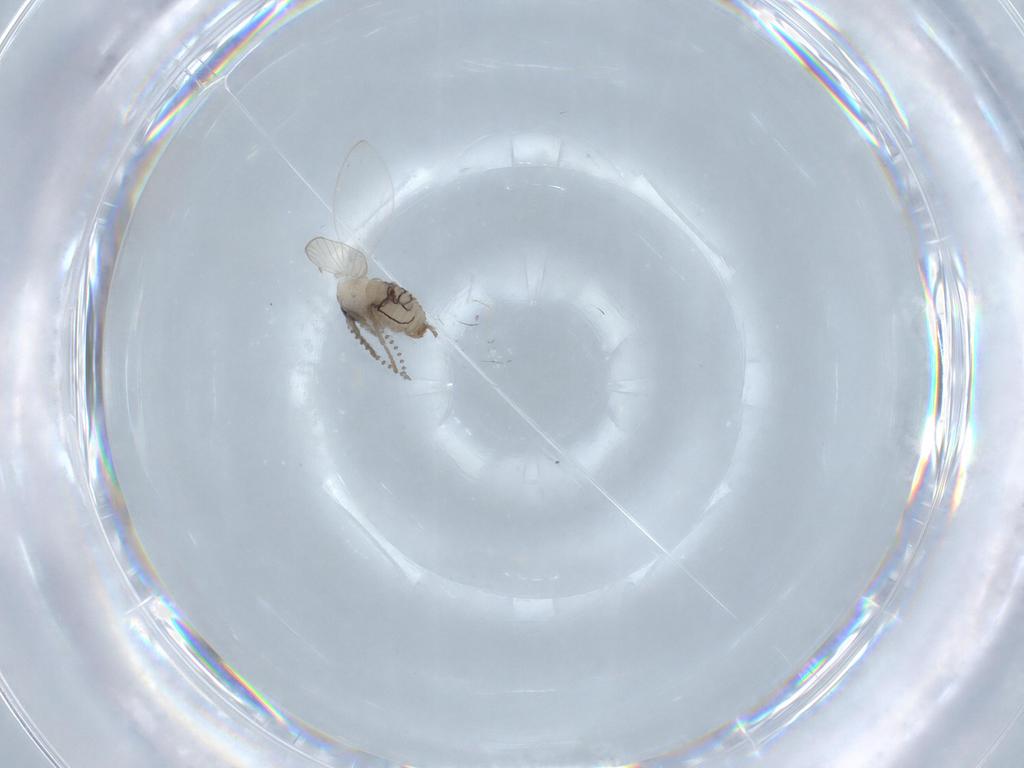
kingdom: Animalia
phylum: Arthropoda
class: Insecta
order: Diptera
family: Psychodidae
